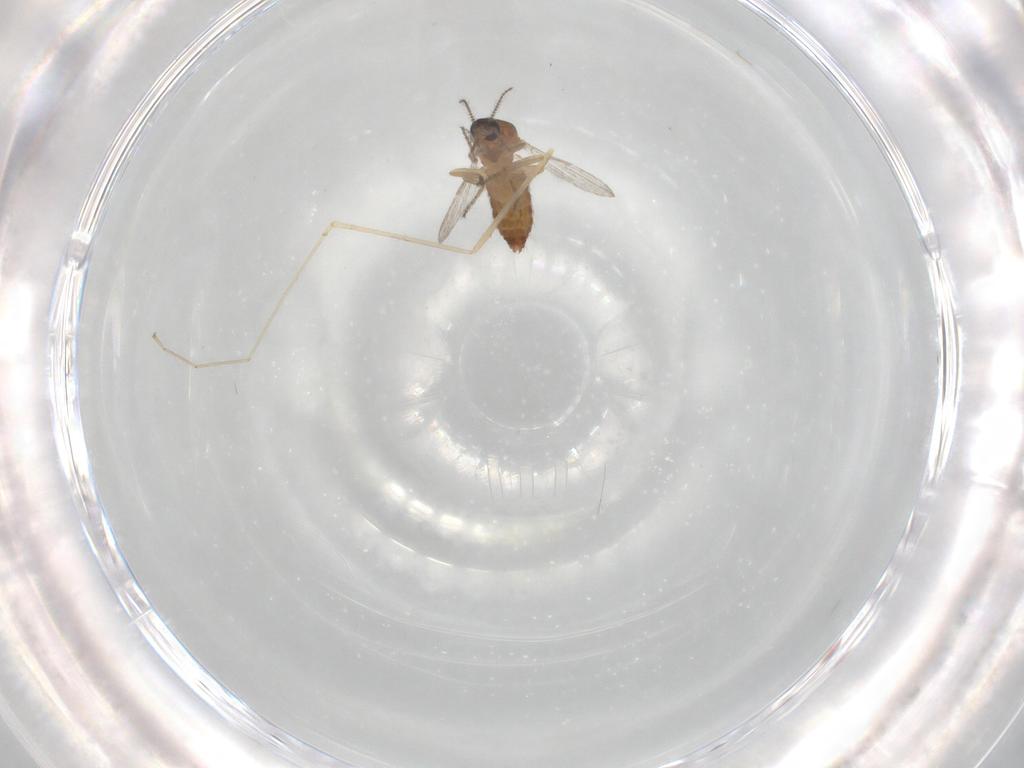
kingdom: Animalia
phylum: Arthropoda
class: Insecta
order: Diptera
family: Cecidomyiidae
